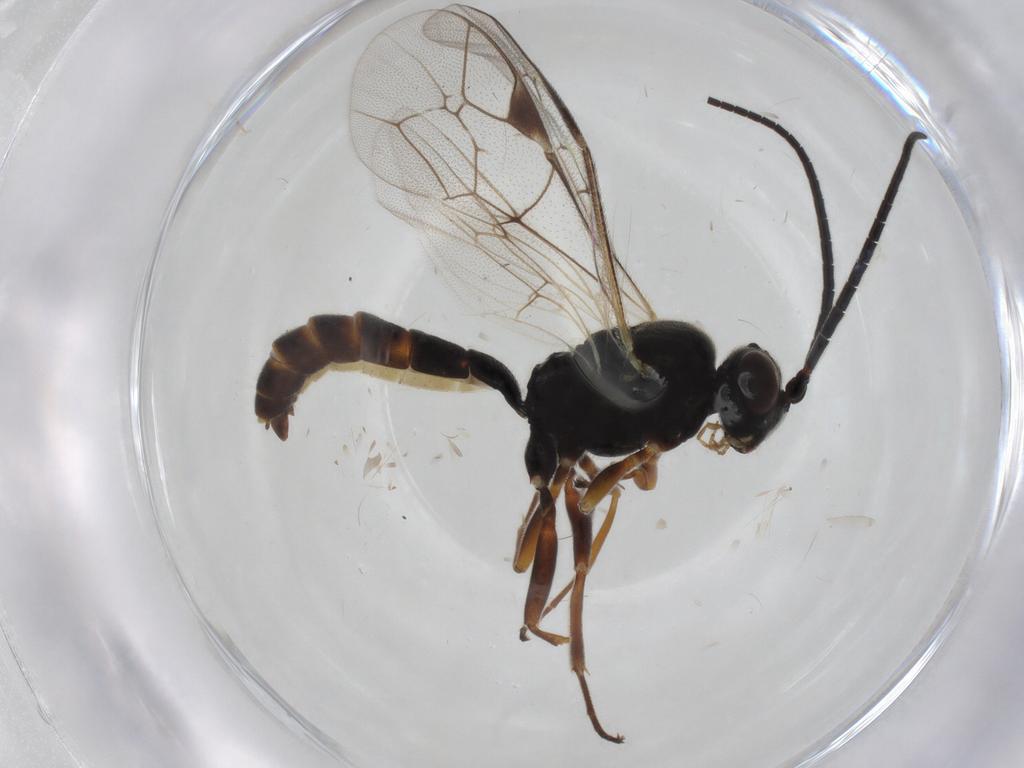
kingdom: Animalia
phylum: Arthropoda
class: Insecta
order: Hymenoptera
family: Ichneumonidae
